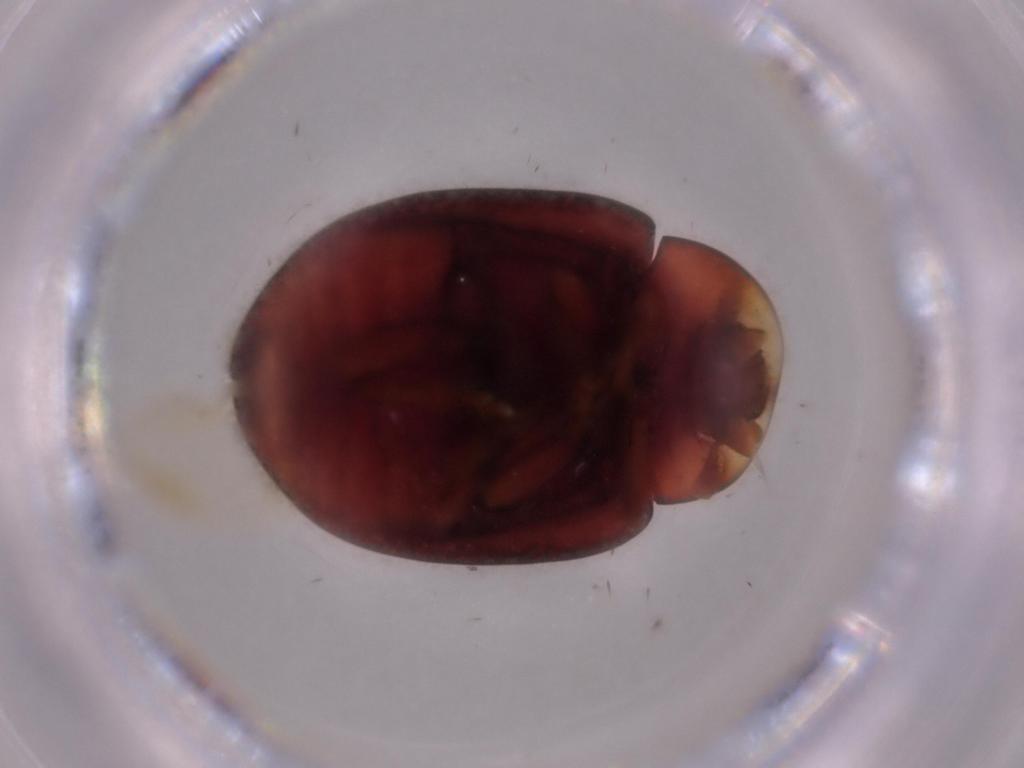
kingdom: Animalia
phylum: Arthropoda
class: Insecta
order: Coleoptera
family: Coccinellidae
